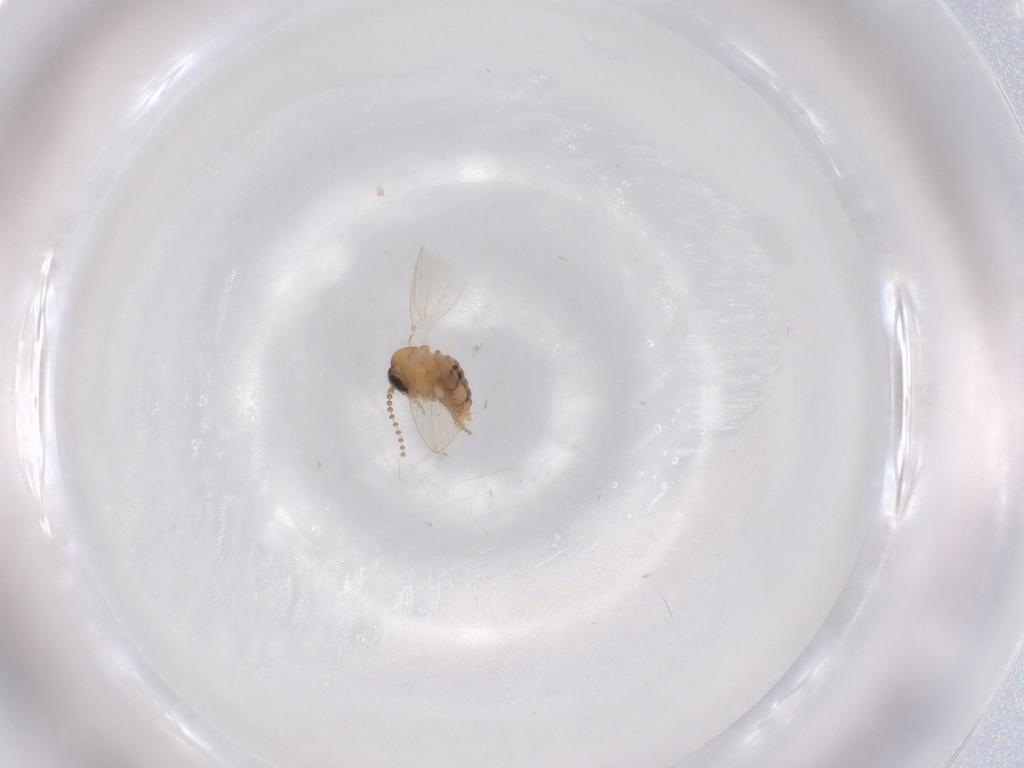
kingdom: Animalia
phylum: Arthropoda
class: Insecta
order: Diptera
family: Psychodidae
